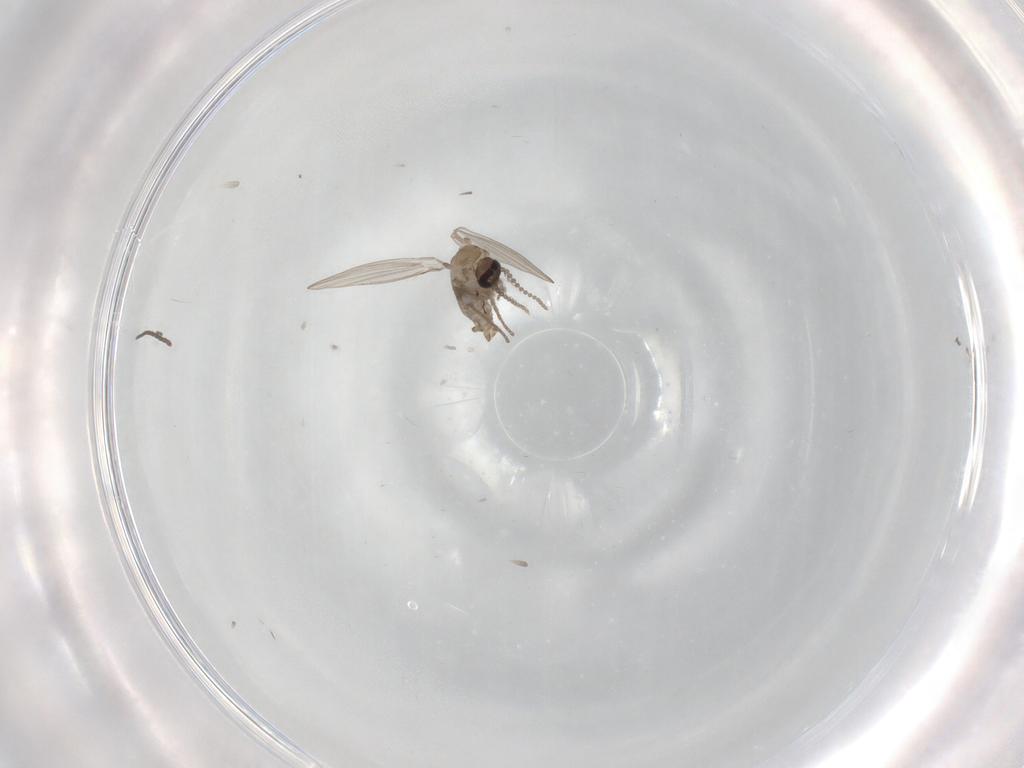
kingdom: Animalia
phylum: Arthropoda
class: Insecta
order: Diptera
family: Psychodidae
